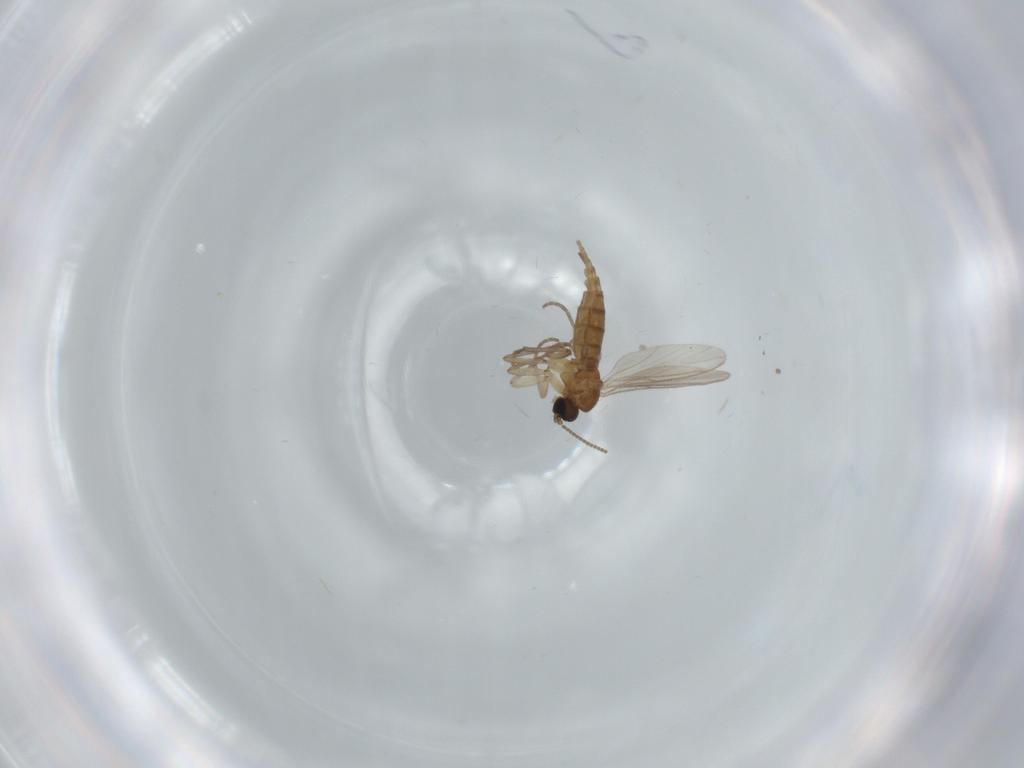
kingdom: Animalia
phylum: Arthropoda
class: Insecta
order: Diptera
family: Sciaridae
